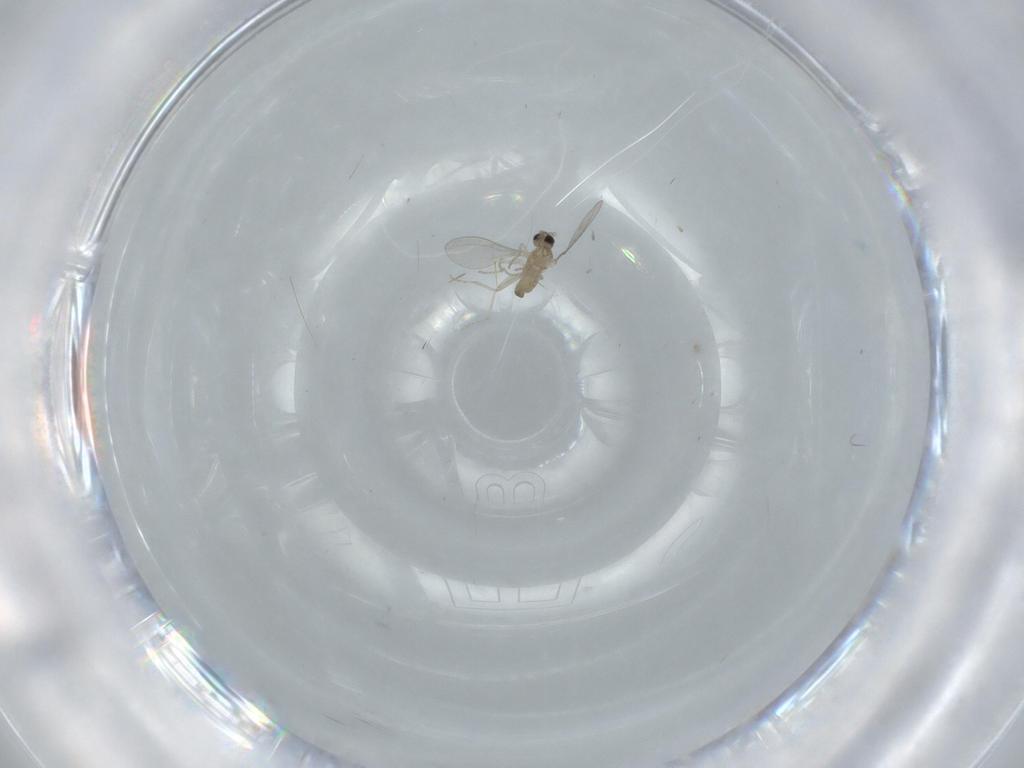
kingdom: Animalia
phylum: Arthropoda
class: Insecta
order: Diptera
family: Cecidomyiidae
